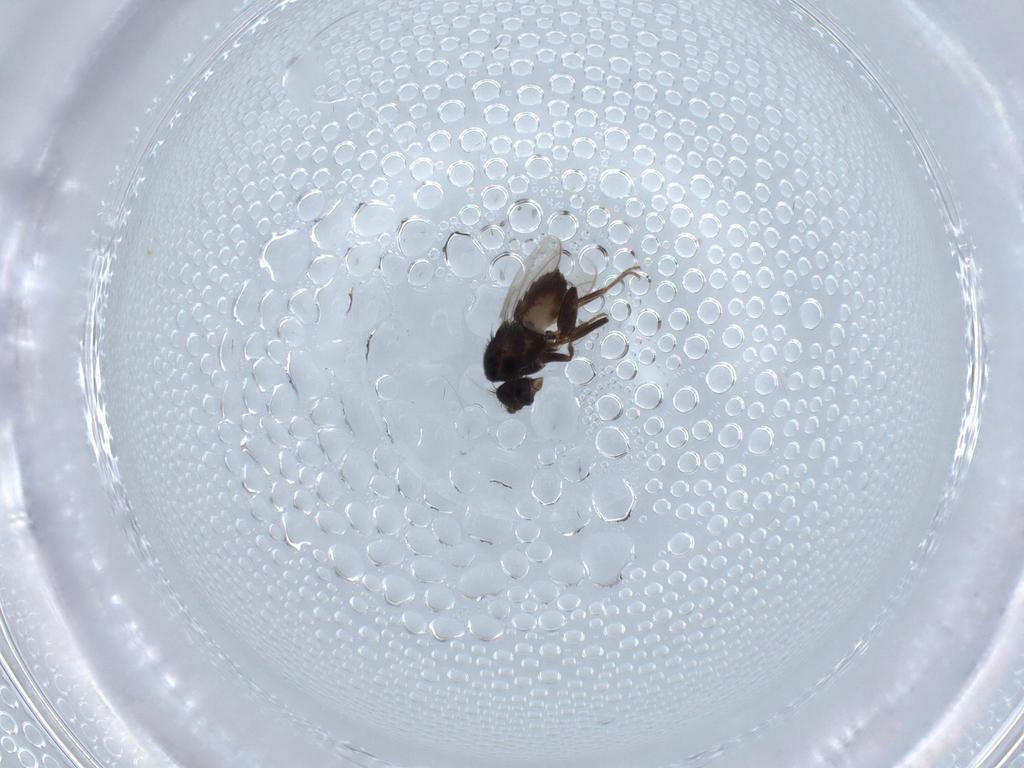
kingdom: Animalia
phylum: Arthropoda
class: Insecta
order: Diptera
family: Sphaeroceridae
